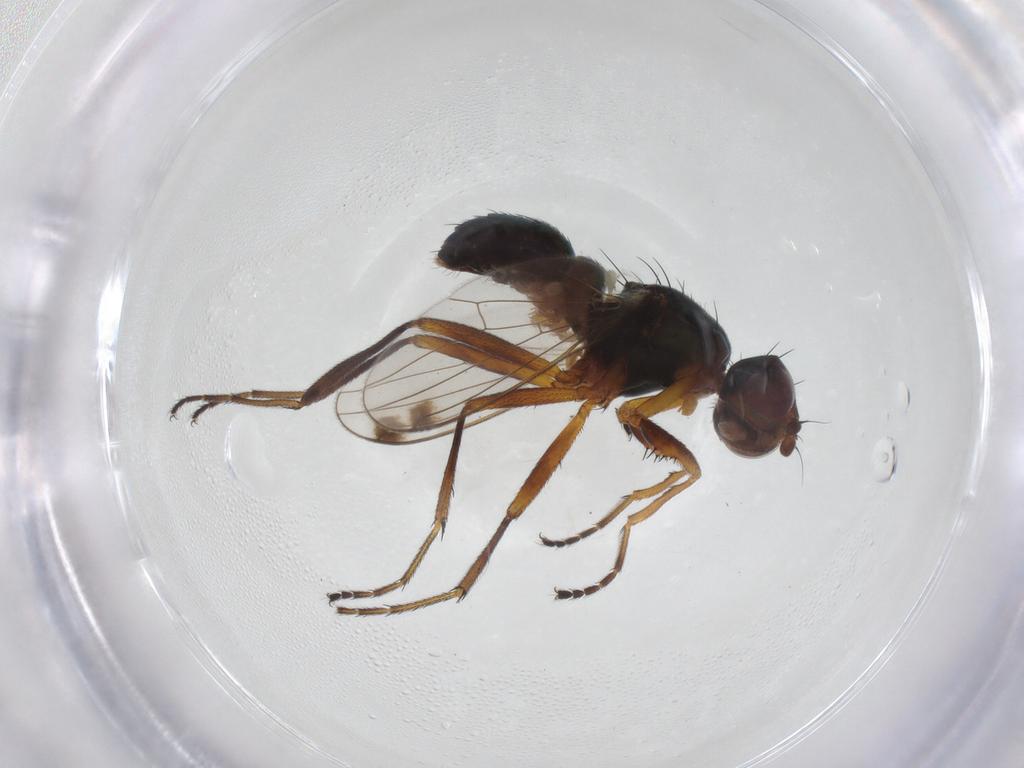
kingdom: Animalia
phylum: Arthropoda
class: Insecta
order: Diptera
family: Sepsidae
